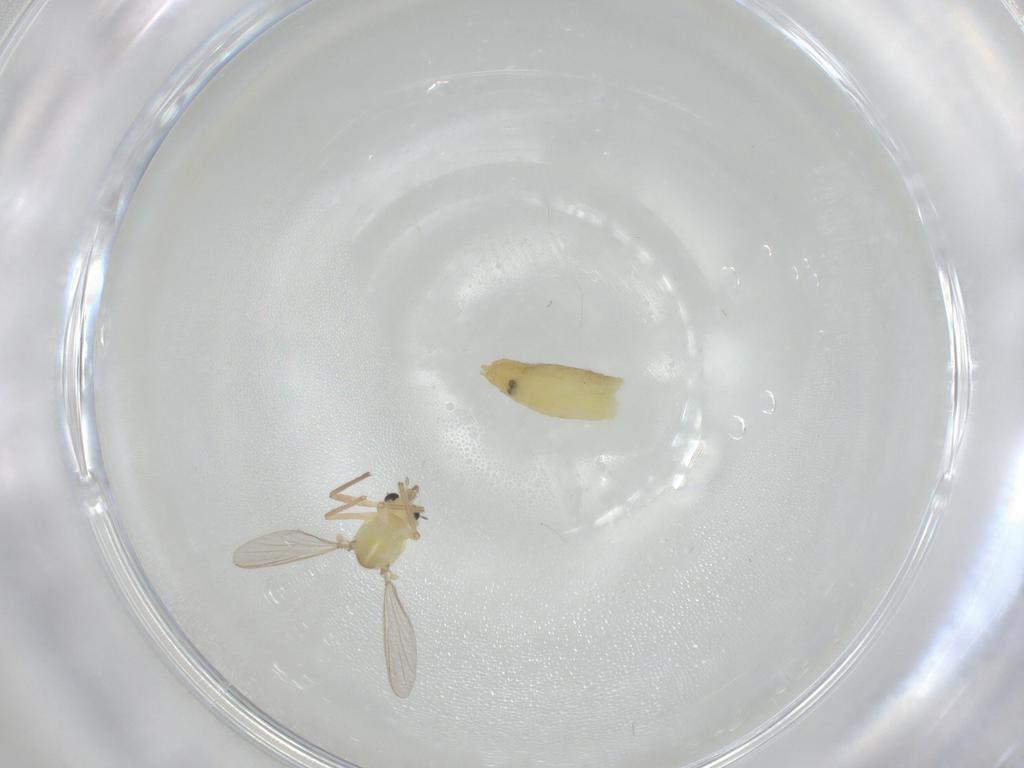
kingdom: Animalia
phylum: Arthropoda
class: Insecta
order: Diptera
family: Chironomidae
